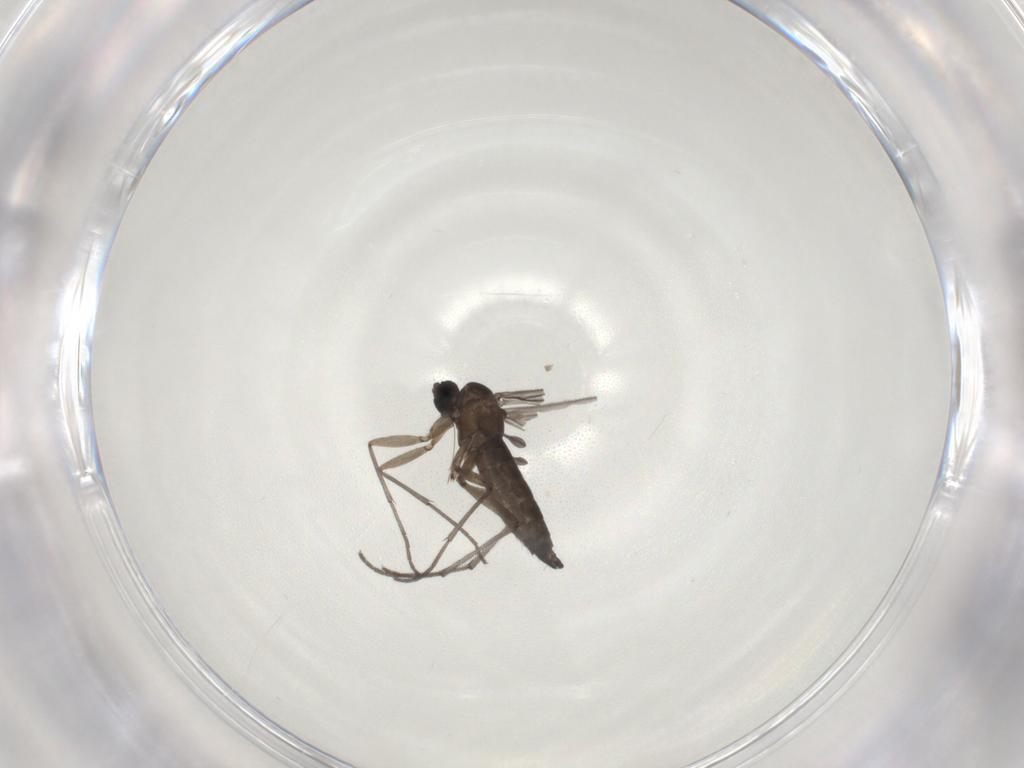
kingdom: Animalia
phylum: Arthropoda
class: Insecta
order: Diptera
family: Sciaridae
